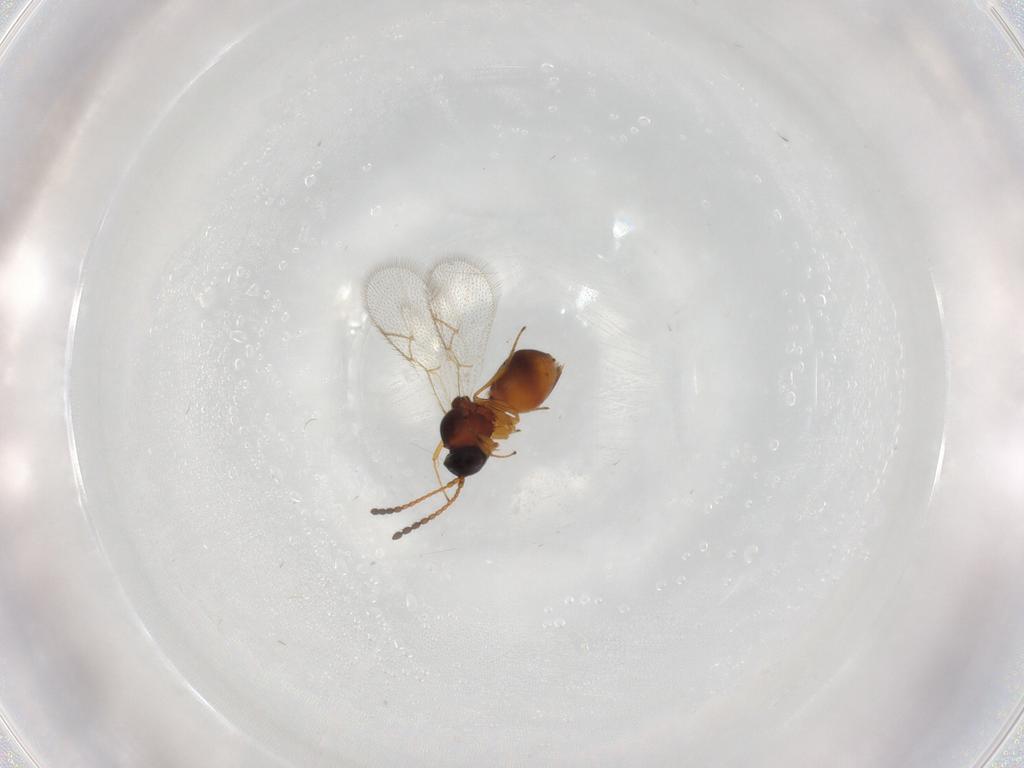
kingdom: Animalia
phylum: Arthropoda
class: Insecta
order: Hymenoptera
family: Figitidae
